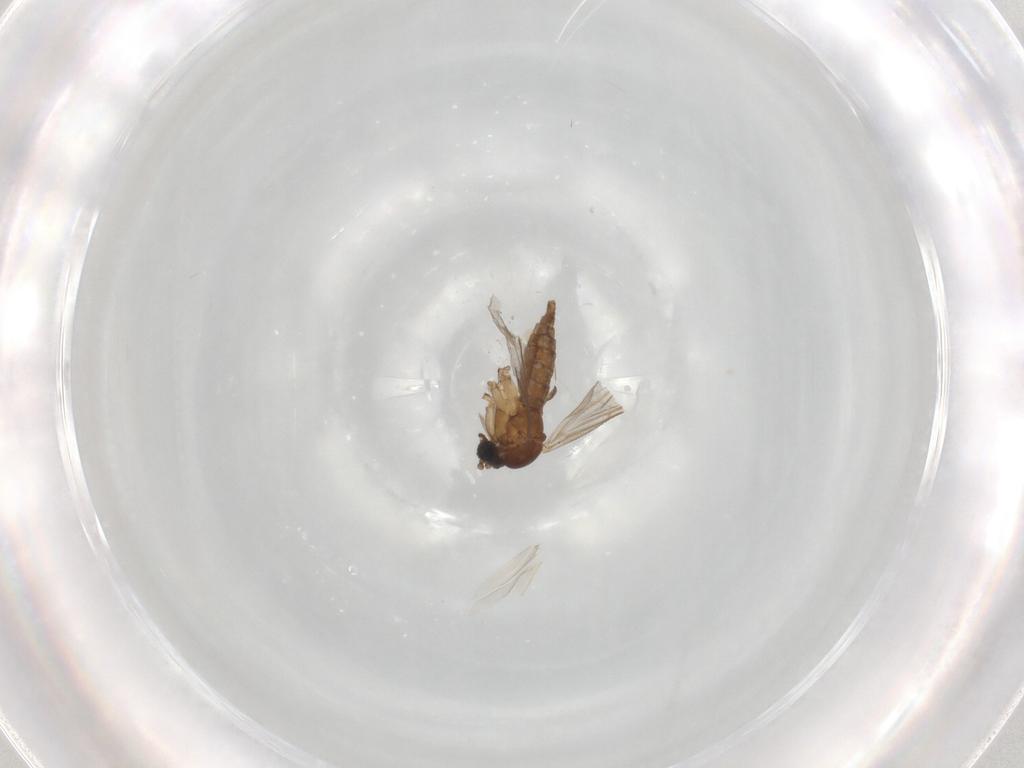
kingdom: Animalia
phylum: Arthropoda
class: Insecta
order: Diptera
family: Sciaridae
